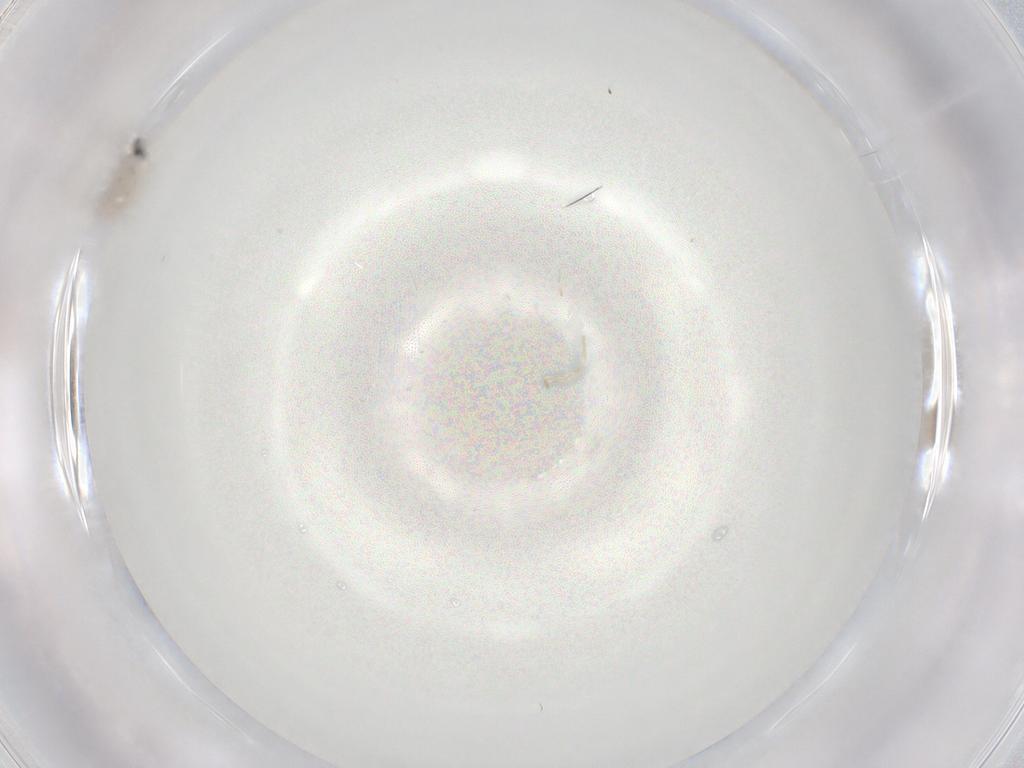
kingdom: Animalia
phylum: Arthropoda
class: Insecta
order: Diptera
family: Cecidomyiidae
